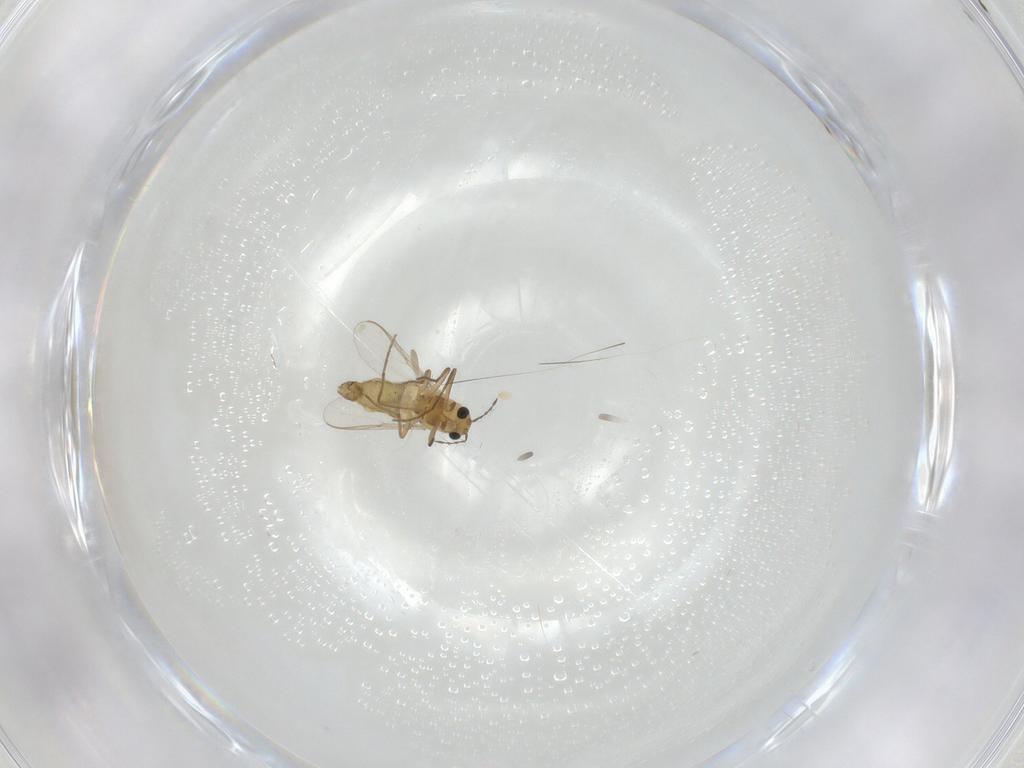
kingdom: Animalia
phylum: Arthropoda
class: Insecta
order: Diptera
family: Chironomidae
